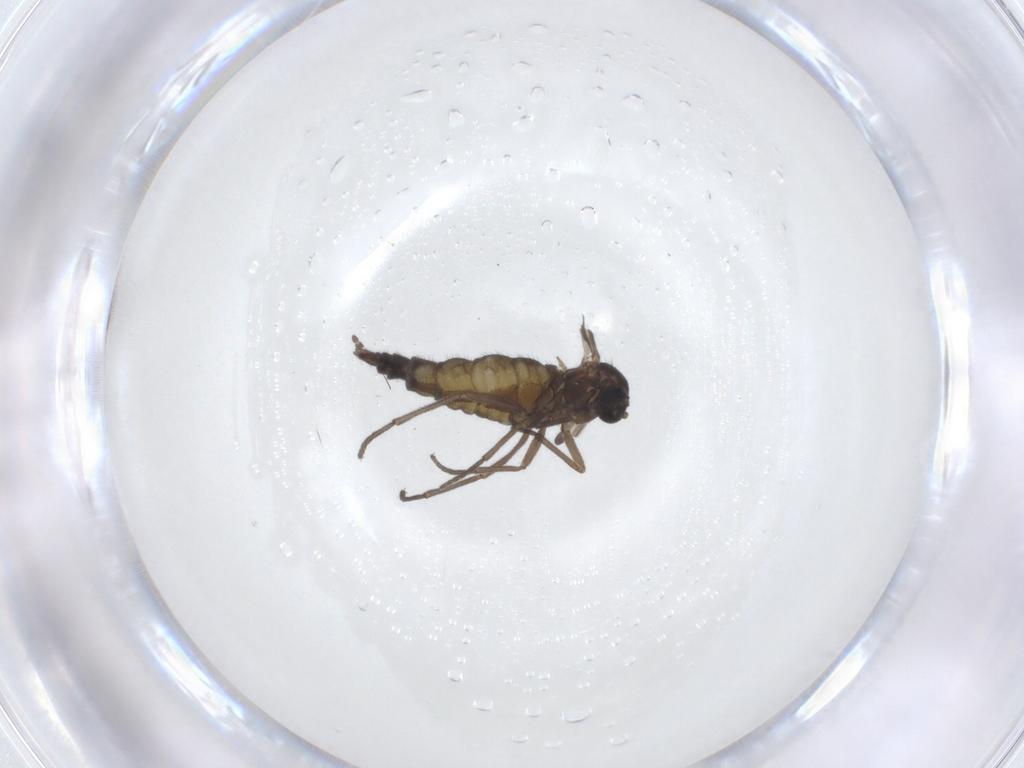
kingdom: Animalia
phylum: Arthropoda
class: Insecta
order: Diptera
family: Sciaridae
